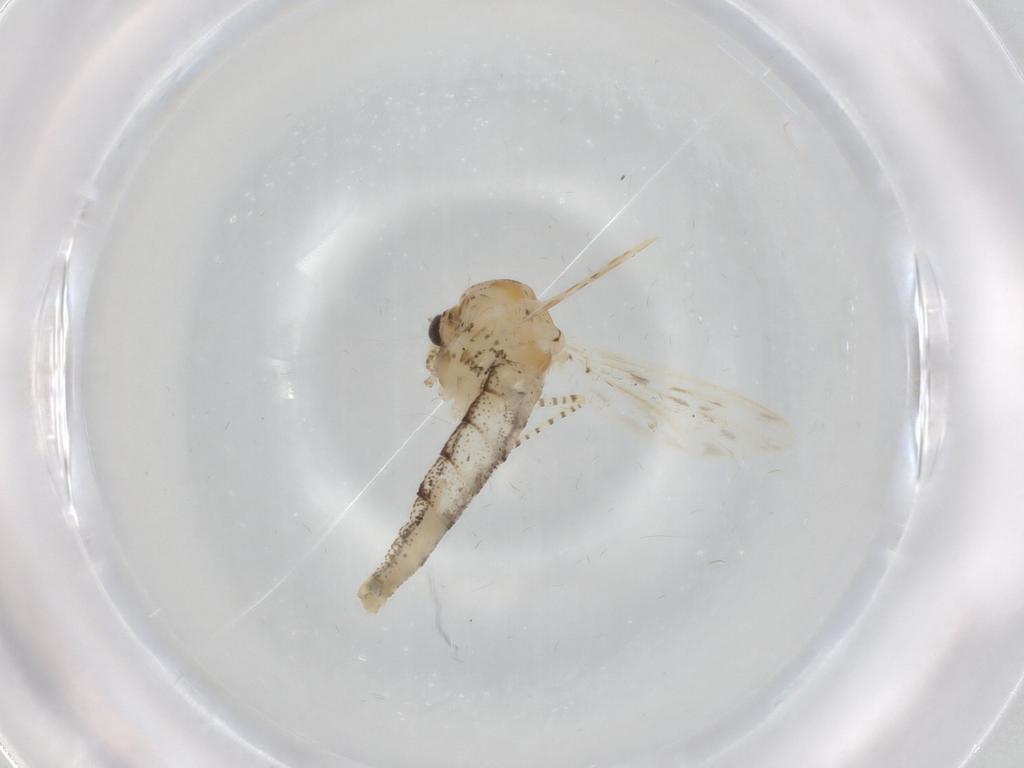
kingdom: Animalia
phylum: Arthropoda
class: Insecta
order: Diptera
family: Chaoboridae
